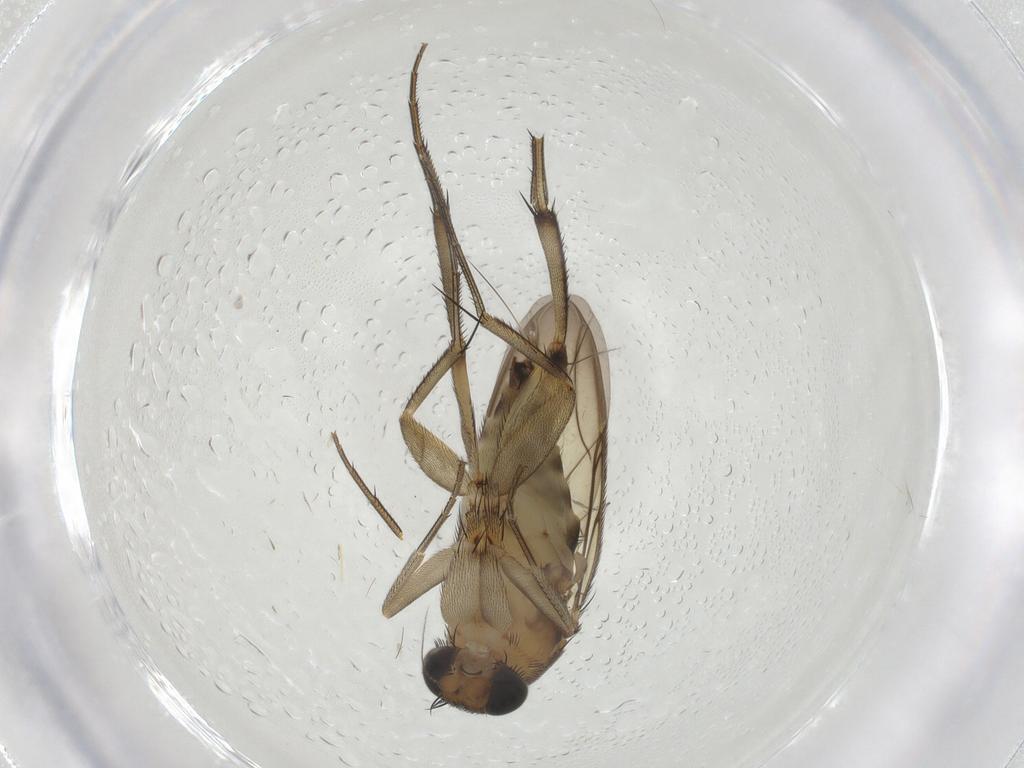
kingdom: Animalia
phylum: Arthropoda
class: Insecta
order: Diptera
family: Phoridae
